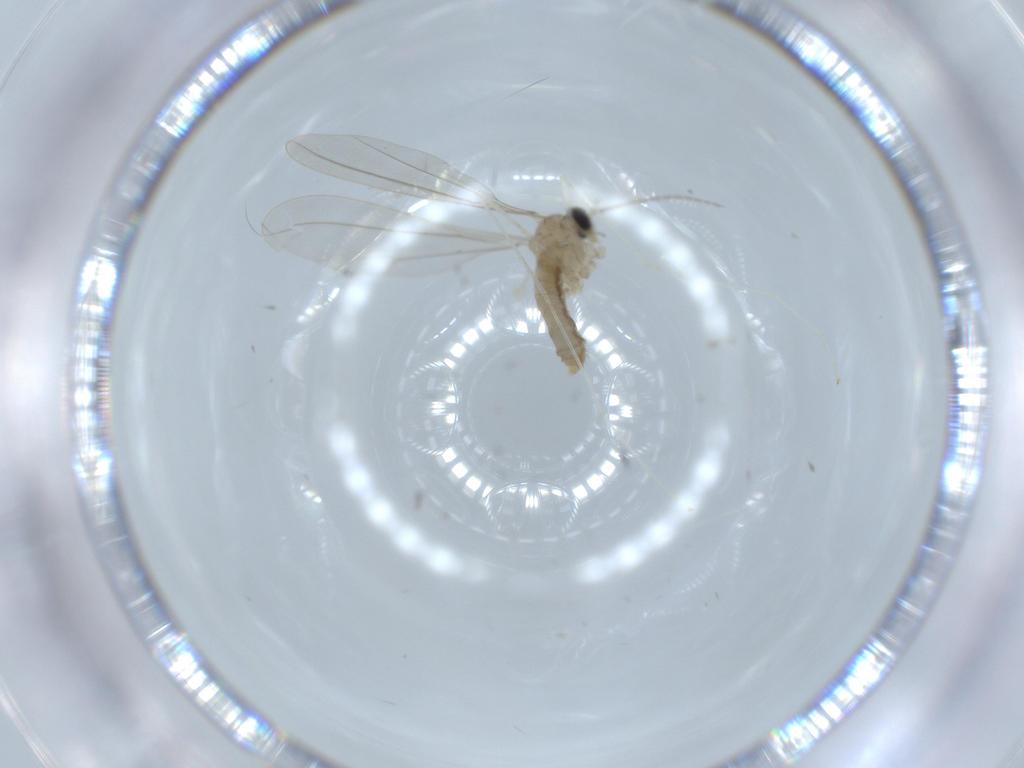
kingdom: Animalia
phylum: Arthropoda
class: Insecta
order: Diptera
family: Cecidomyiidae
